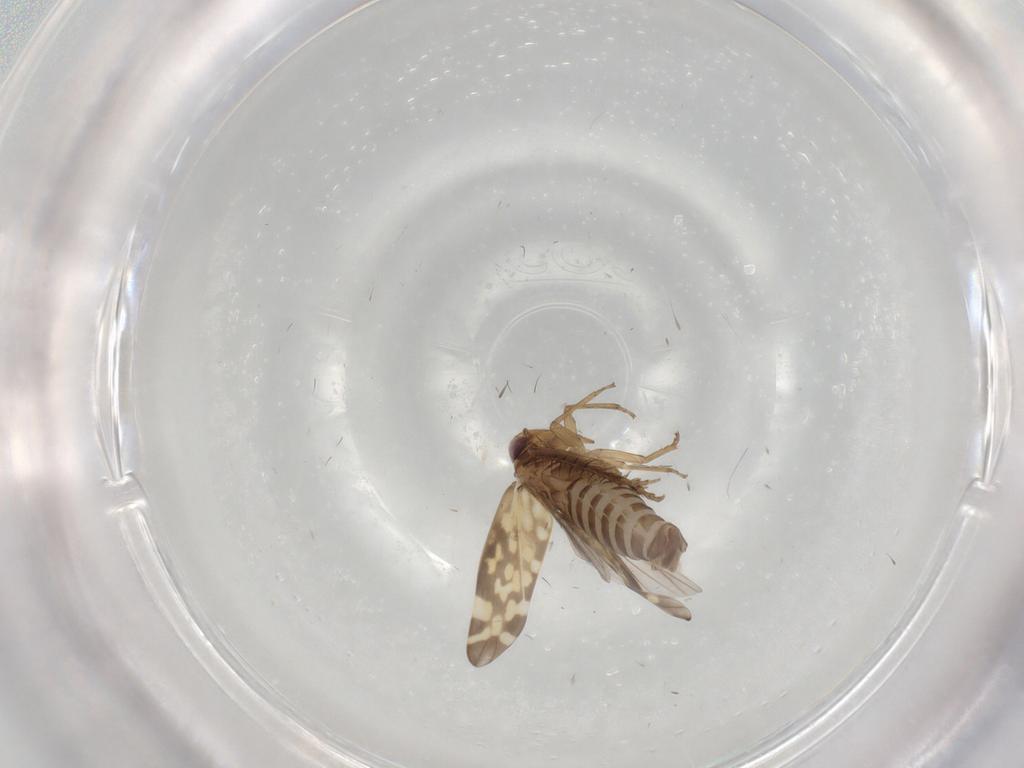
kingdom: Animalia
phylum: Arthropoda
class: Insecta
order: Hemiptera
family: Cicadellidae
